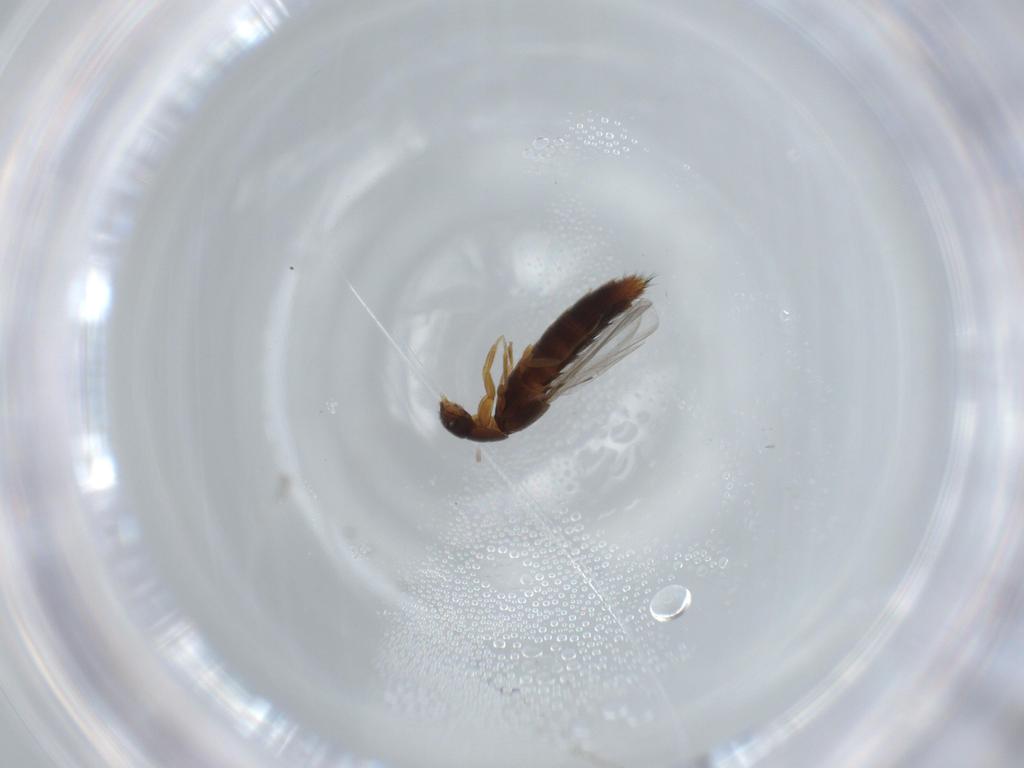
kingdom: Animalia
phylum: Arthropoda
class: Insecta
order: Coleoptera
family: Staphylinidae
